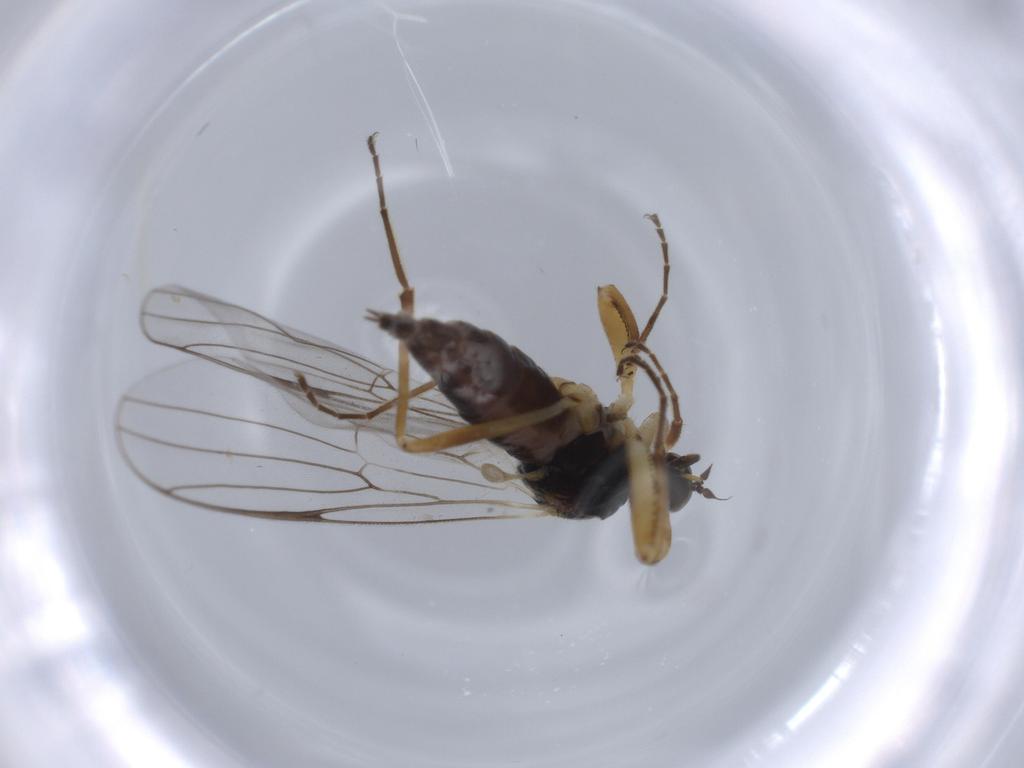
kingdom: Animalia
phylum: Arthropoda
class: Insecta
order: Diptera
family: Hybotidae
